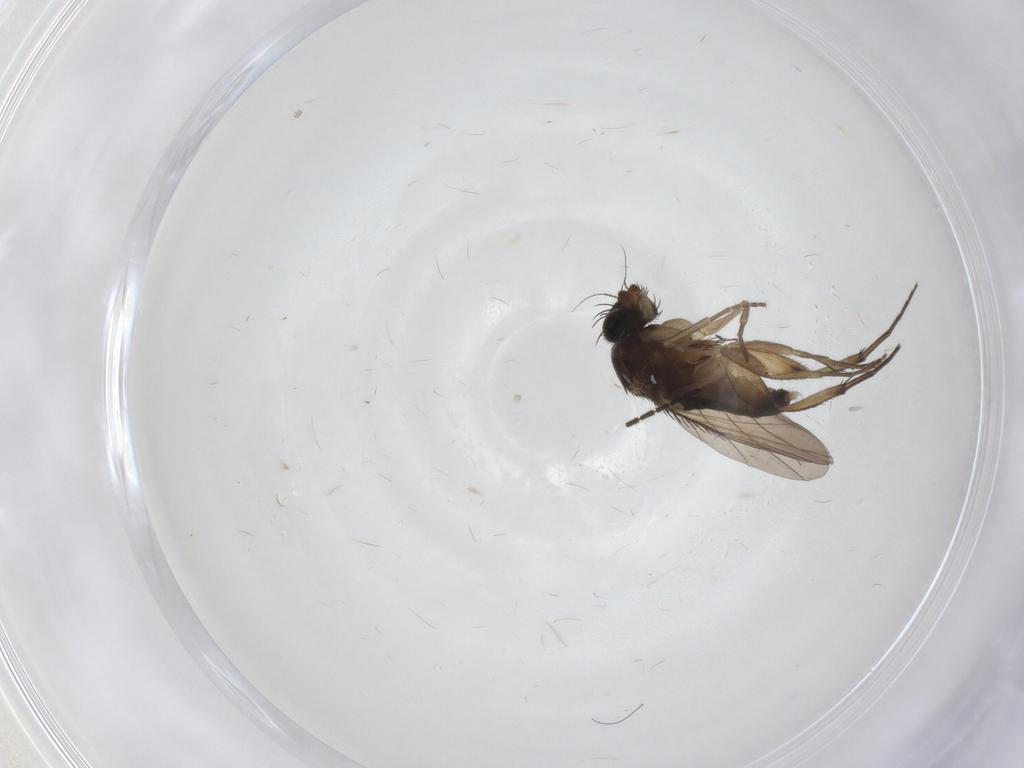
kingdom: Animalia
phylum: Arthropoda
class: Insecta
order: Diptera
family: Phoridae
